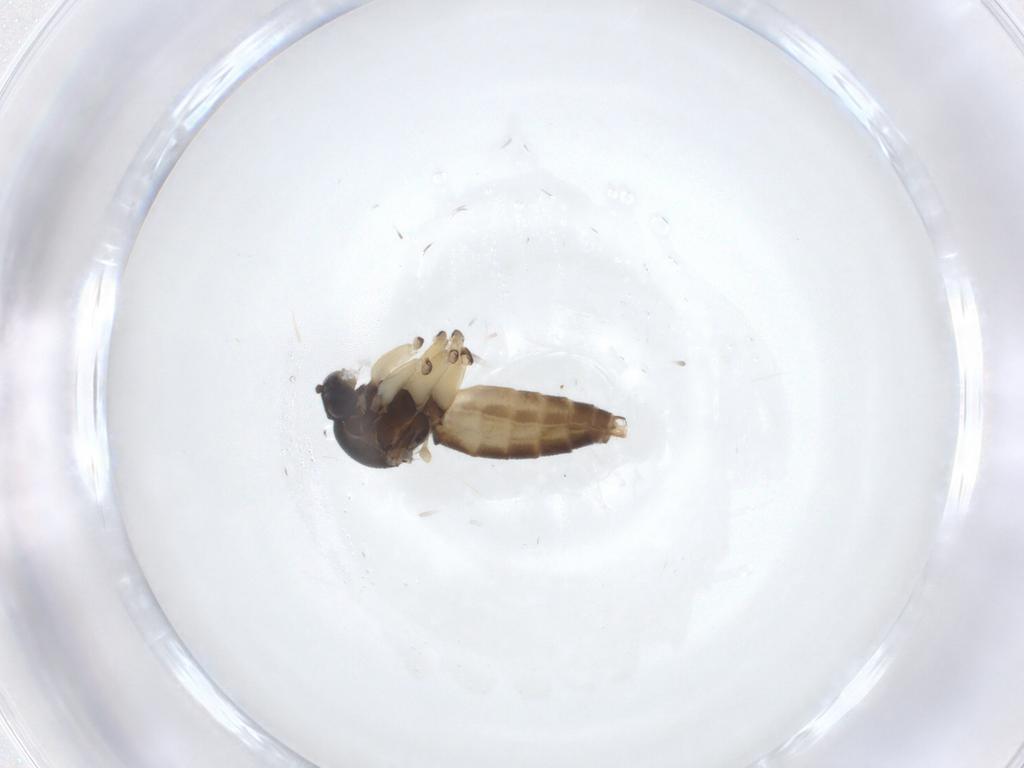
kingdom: Animalia
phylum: Arthropoda
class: Insecta
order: Diptera
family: Mycetophilidae
